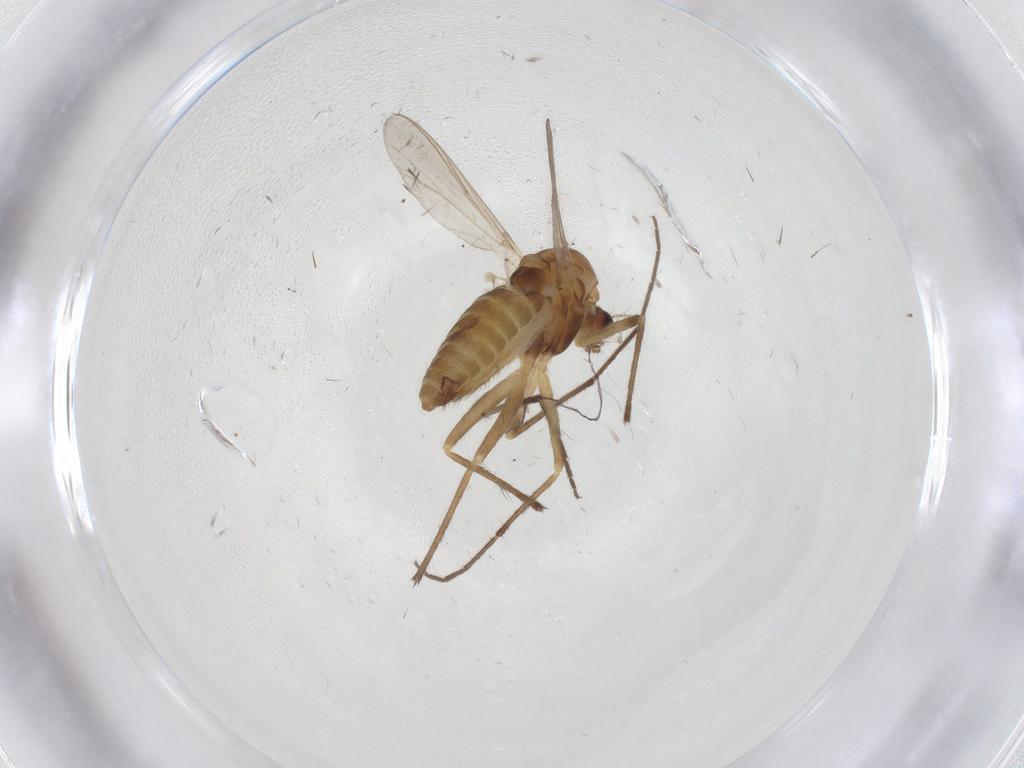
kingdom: Animalia
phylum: Arthropoda
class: Insecta
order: Diptera
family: Chironomidae
